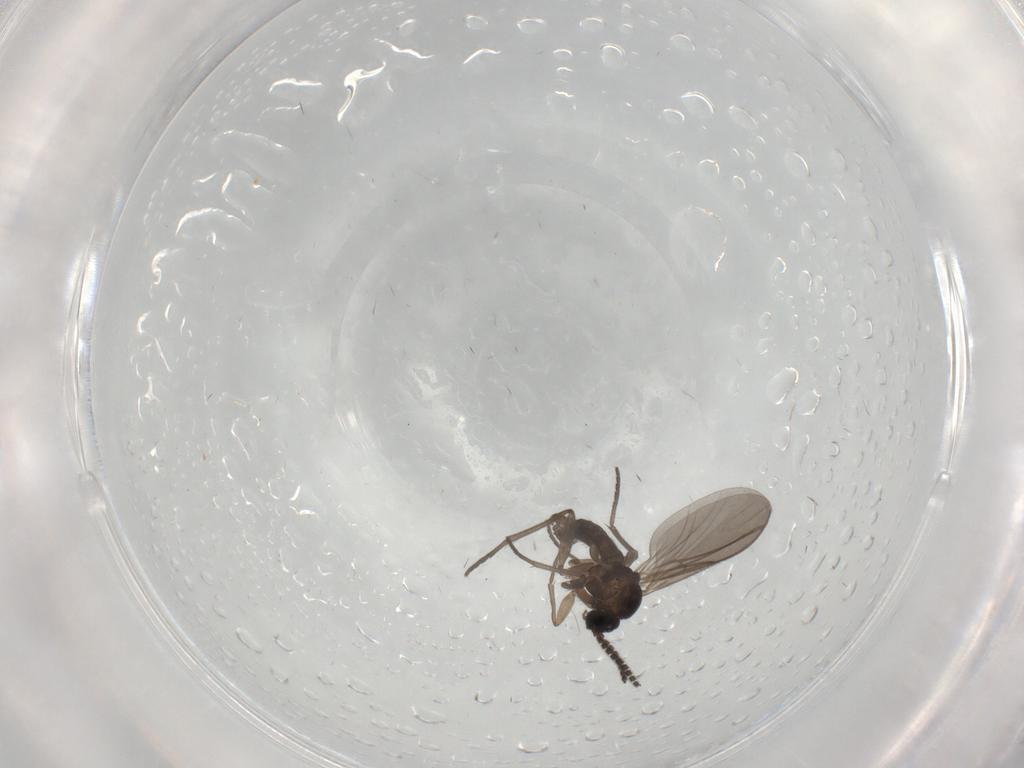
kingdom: Animalia
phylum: Arthropoda
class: Insecta
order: Diptera
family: Sciaridae
